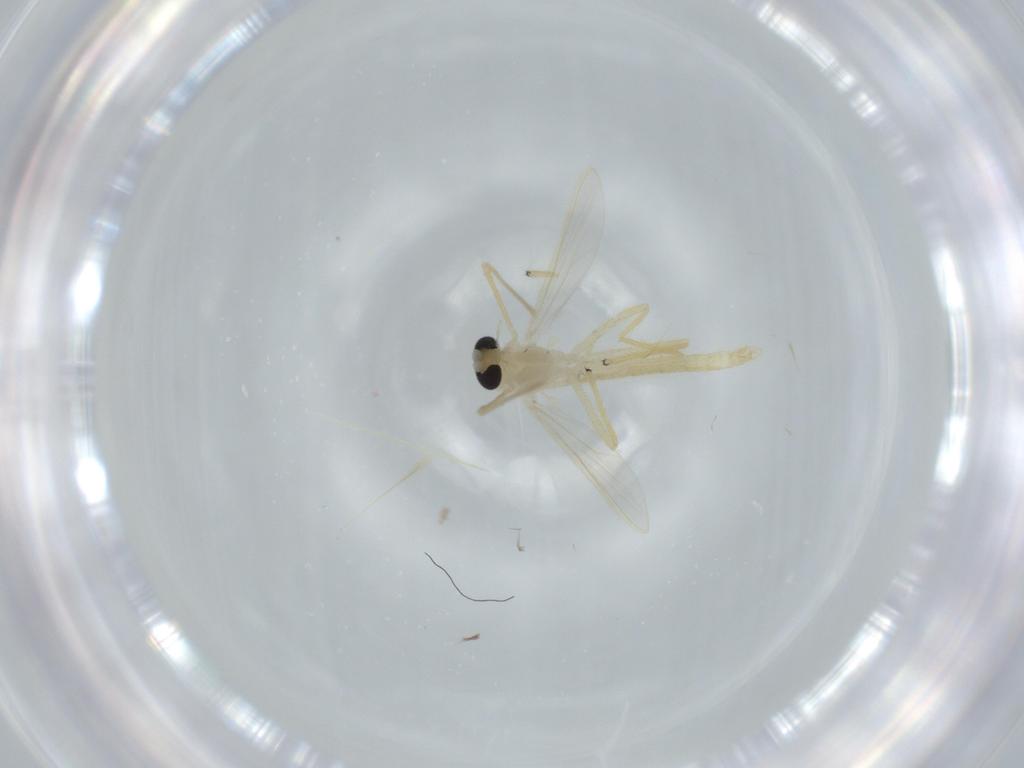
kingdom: Animalia
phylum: Arthropoda
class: Insecta
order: Diptera
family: Chironomidae
